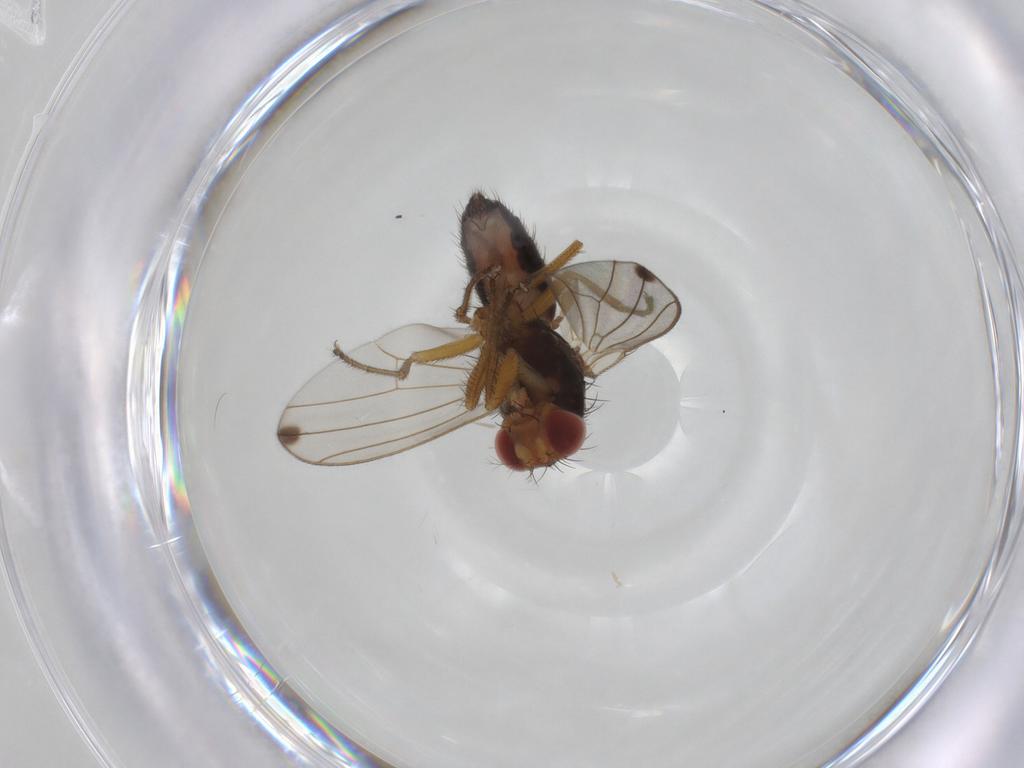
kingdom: Animalia
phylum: Arthropoda
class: Insecta
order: Diptera
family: Drosophilidae
